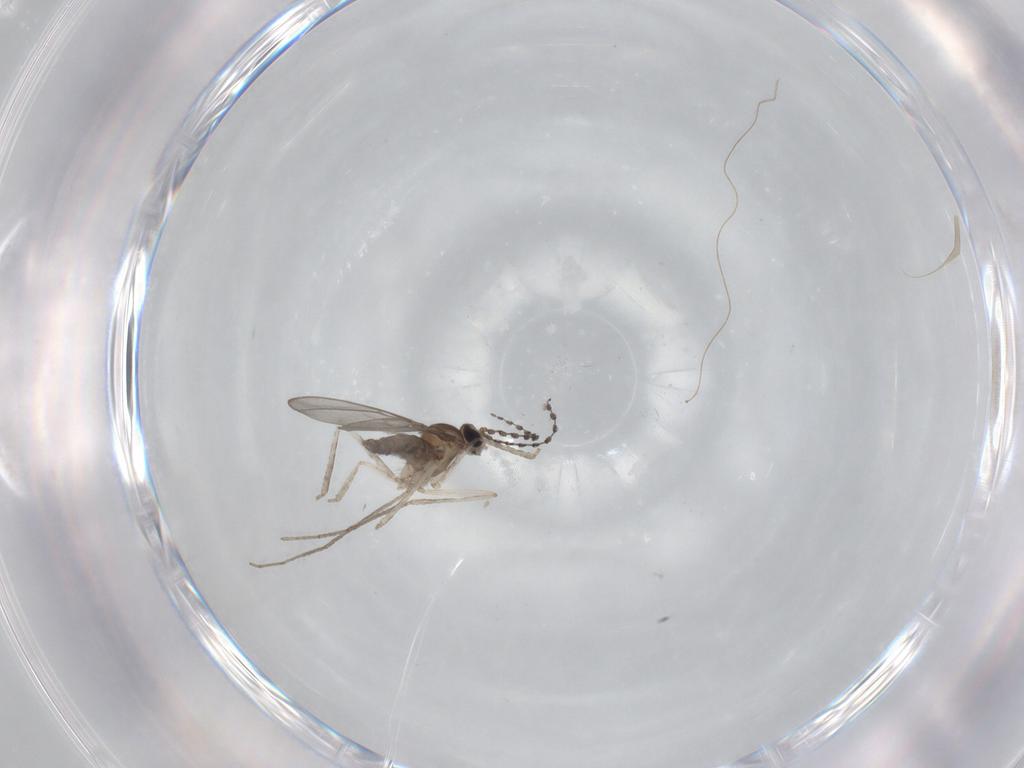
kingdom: Animalia
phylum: Arthropoda
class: Insecta
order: Diptera
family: Cecidomyiidae
